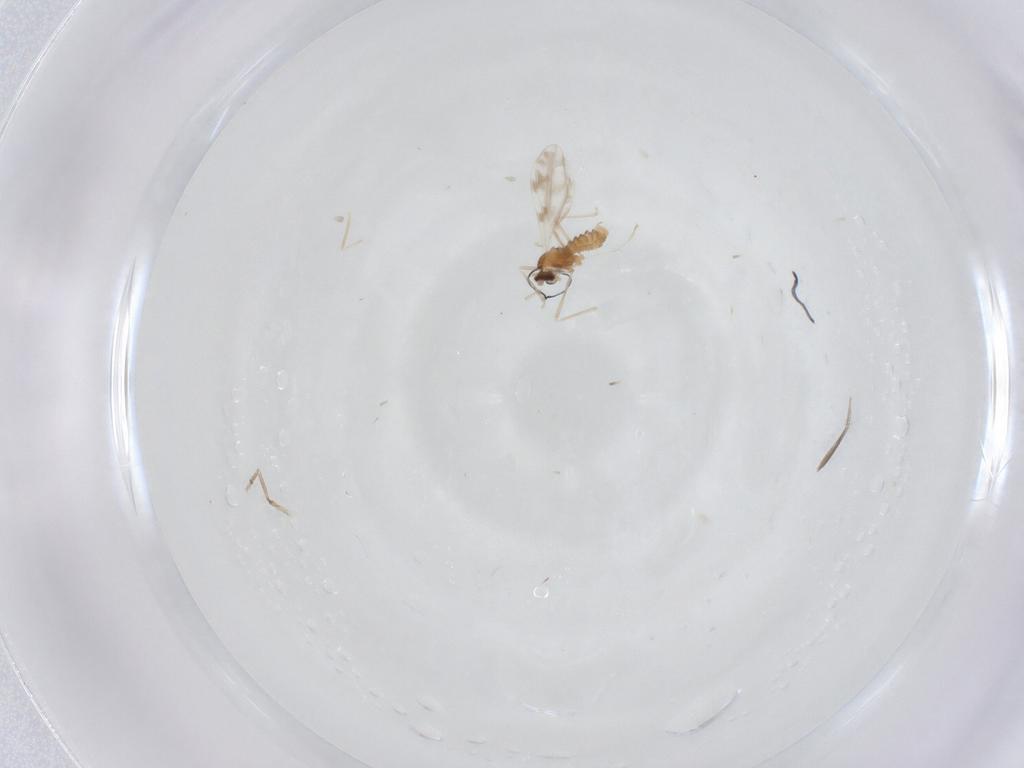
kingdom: Animalia
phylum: Arthropoda
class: Insecta
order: Diptera
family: Cecidomyiidae
